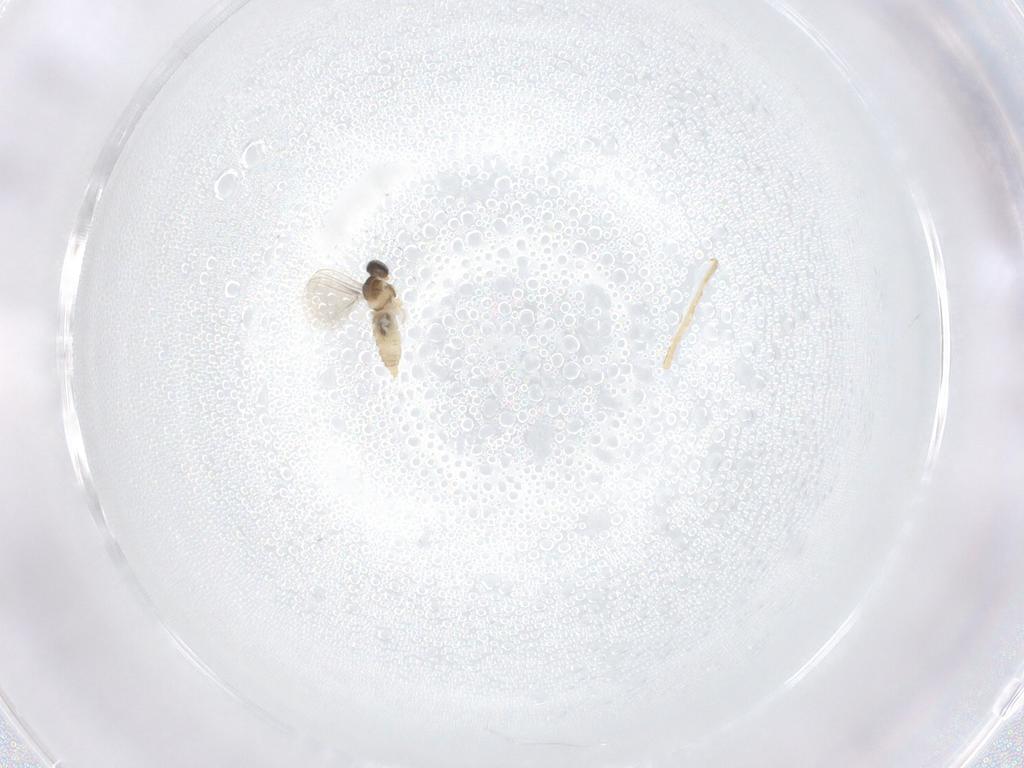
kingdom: Animalia
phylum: Arthropoda
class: Insecta
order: Diptera
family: Cecidomyiidae
